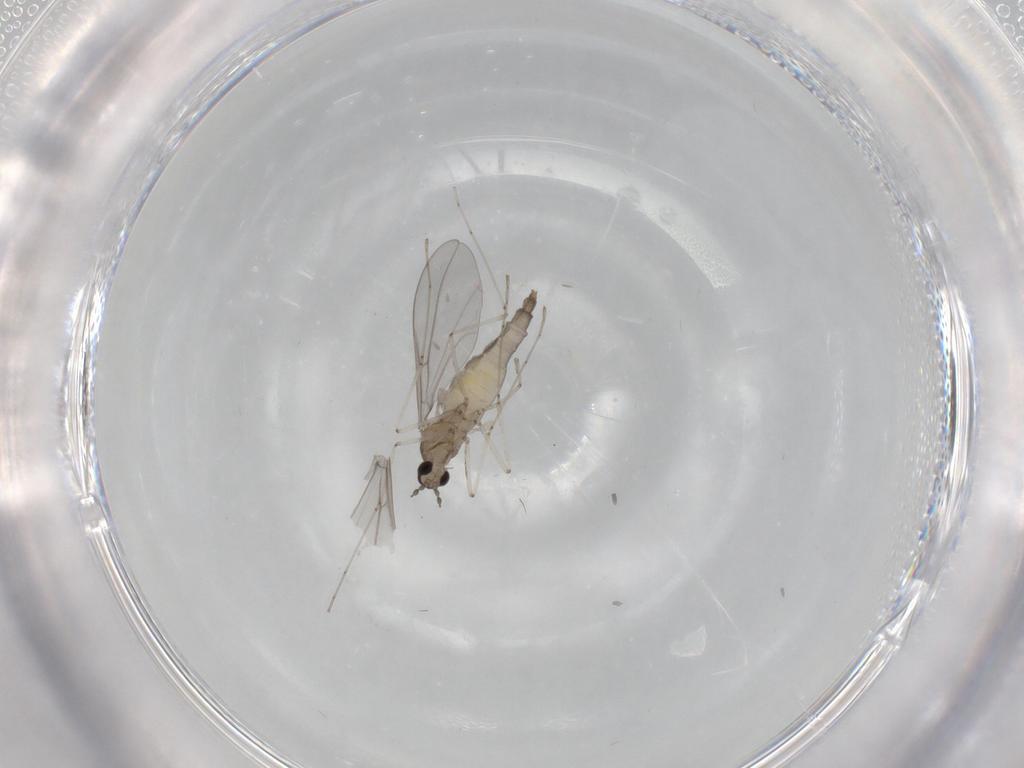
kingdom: Animalia
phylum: Arthropoda
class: Insecta
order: Diptera
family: Cecidomyiidae
